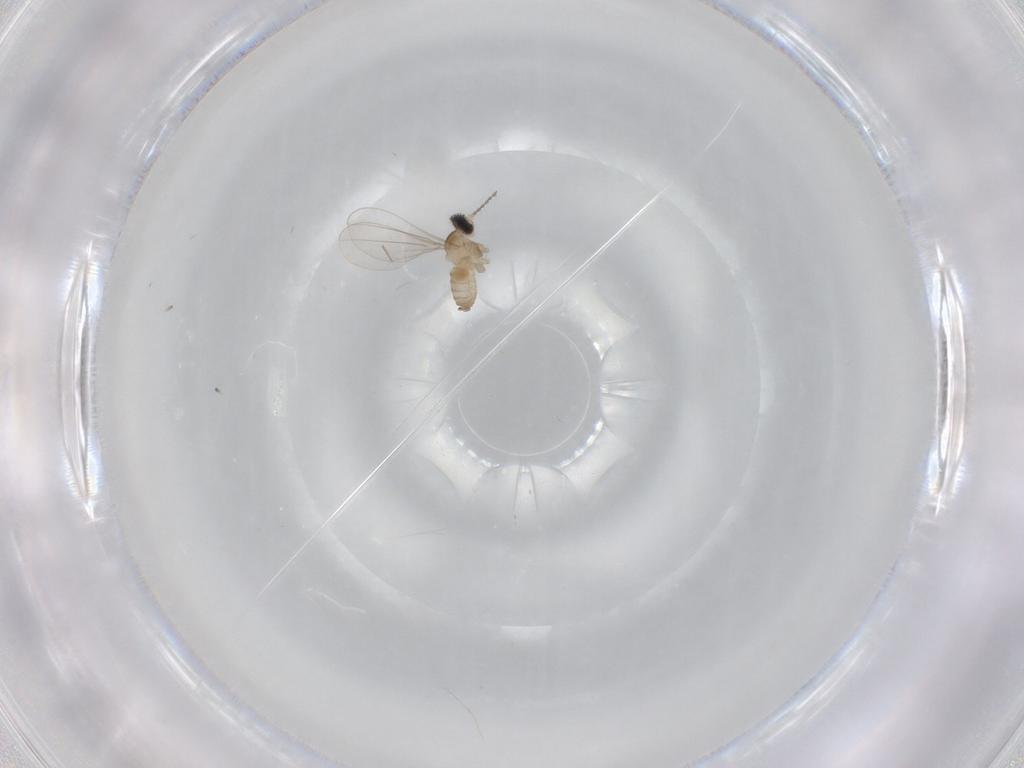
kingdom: Animalia
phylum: Arthropoda
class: Insecta
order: Diptera
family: Cecidomyiidae
